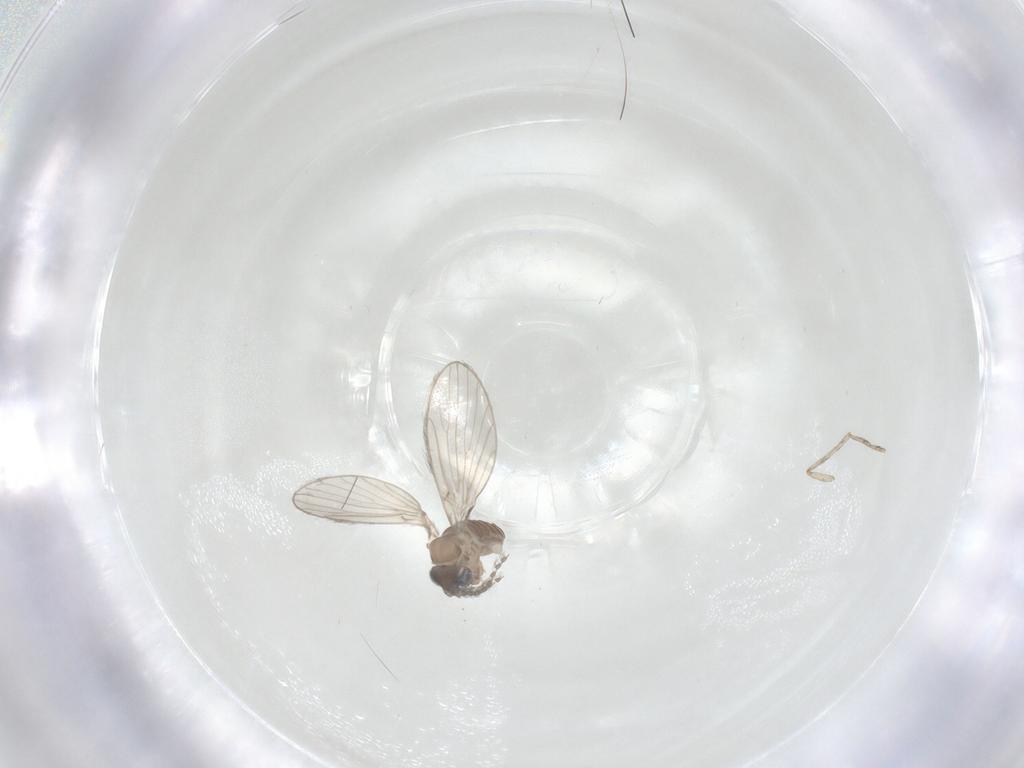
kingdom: Animalia
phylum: Arthropoda
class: Insecta
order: Diptera
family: Psychodidae
